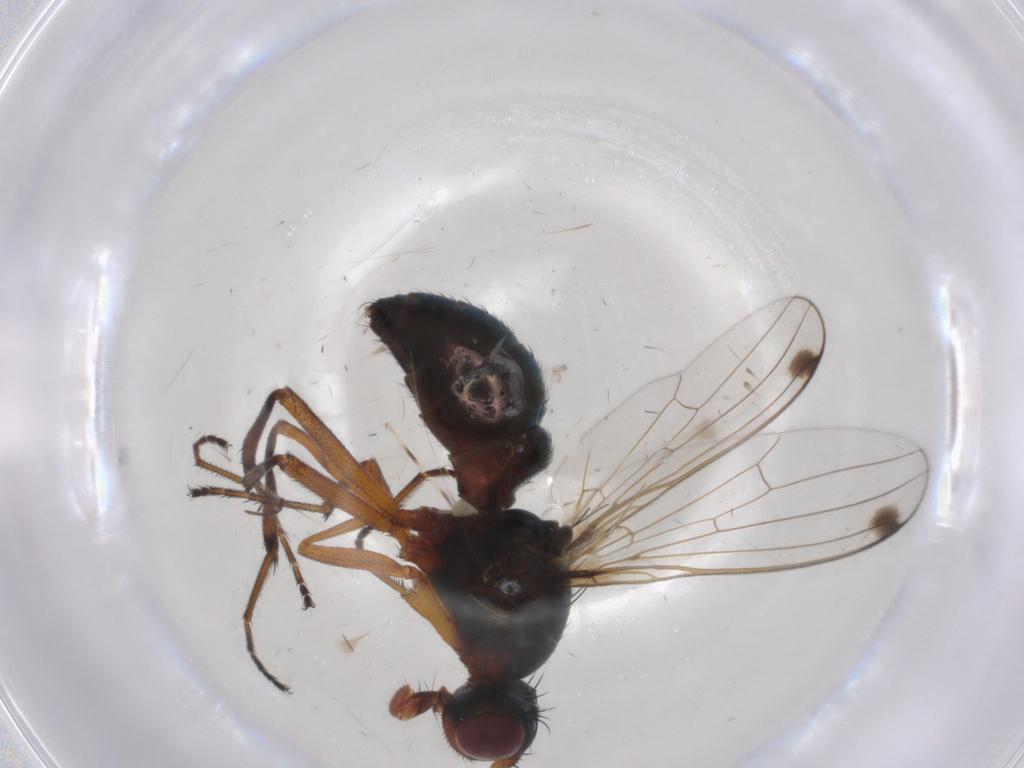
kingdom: Animalia
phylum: Arthropoda
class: Insecta
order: Diptera
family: Sepsidae
